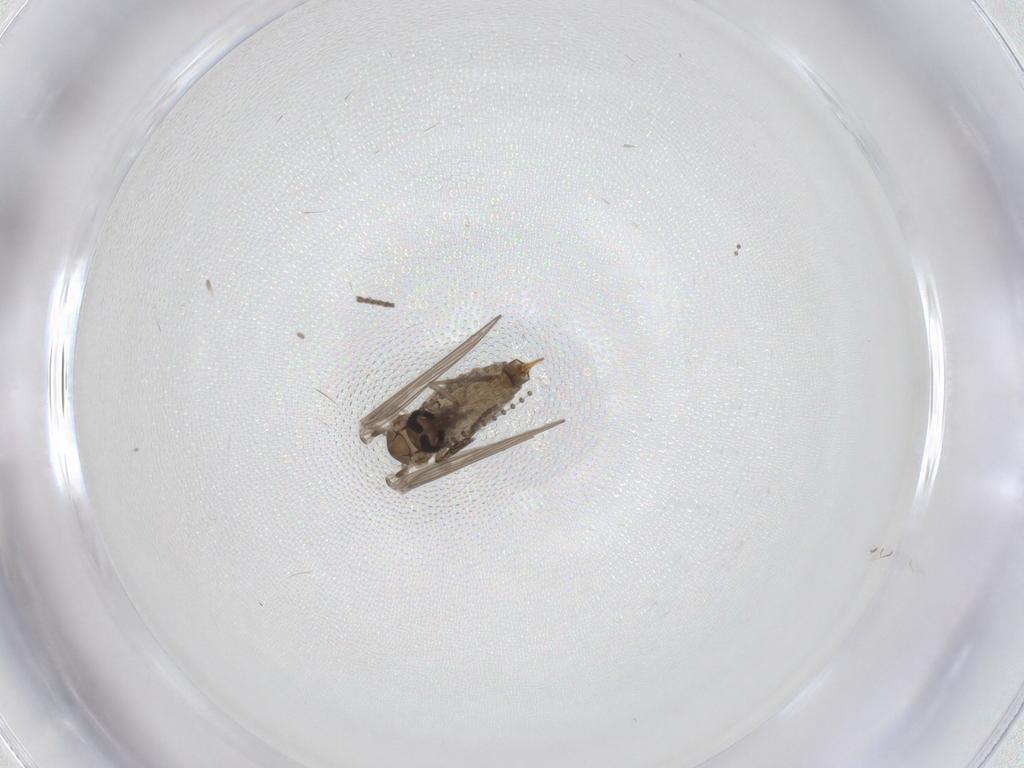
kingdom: Animalia
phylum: Arthropoda
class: Insecta
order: Diptera
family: Psychodidae
